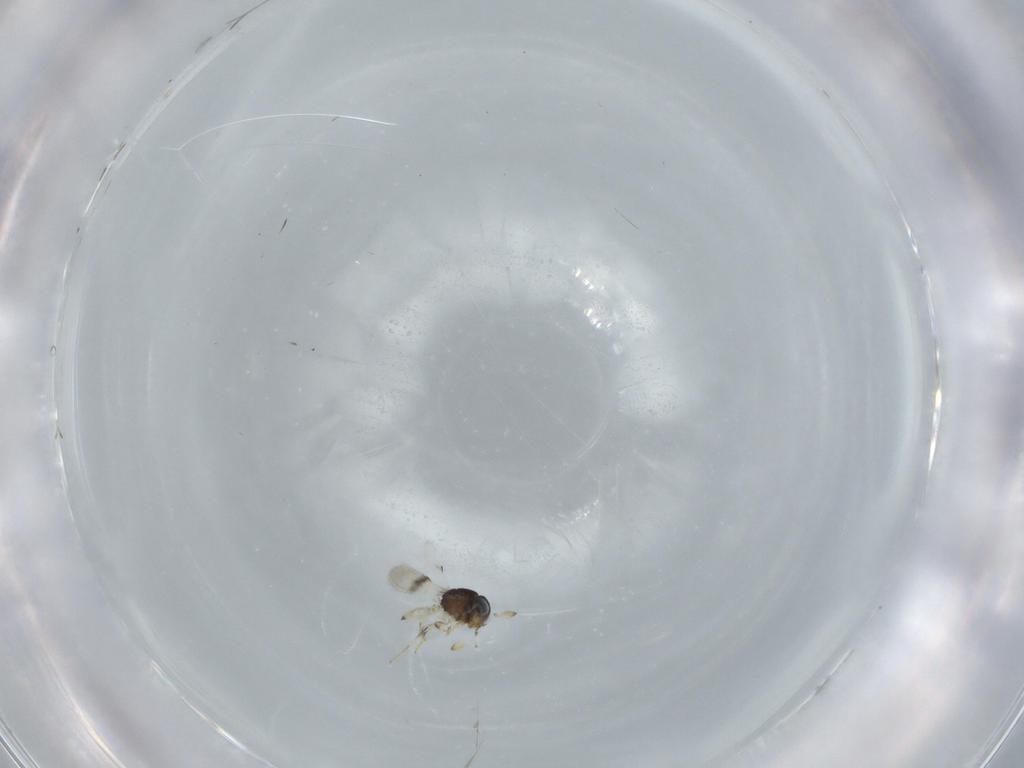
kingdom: Animalia
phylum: Arthropoda
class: Insecta
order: Hymenoptera
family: Scelionidae
